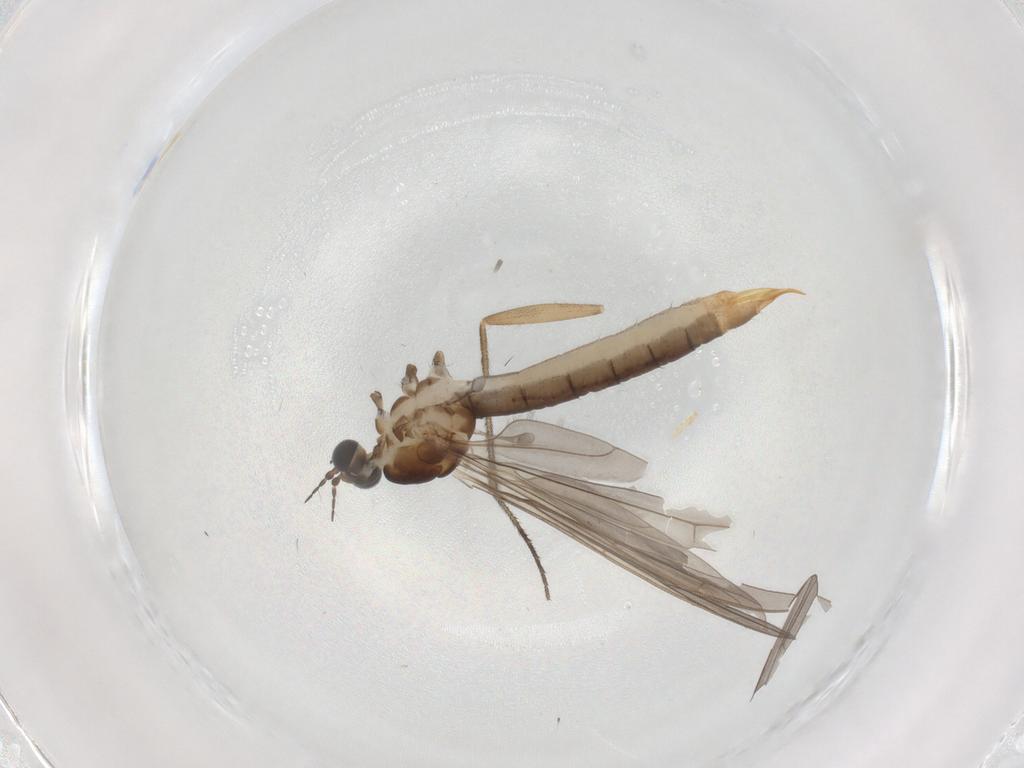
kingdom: Animalia
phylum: Arthropoda
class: Insecta
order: Diptera
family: Limoniidae
